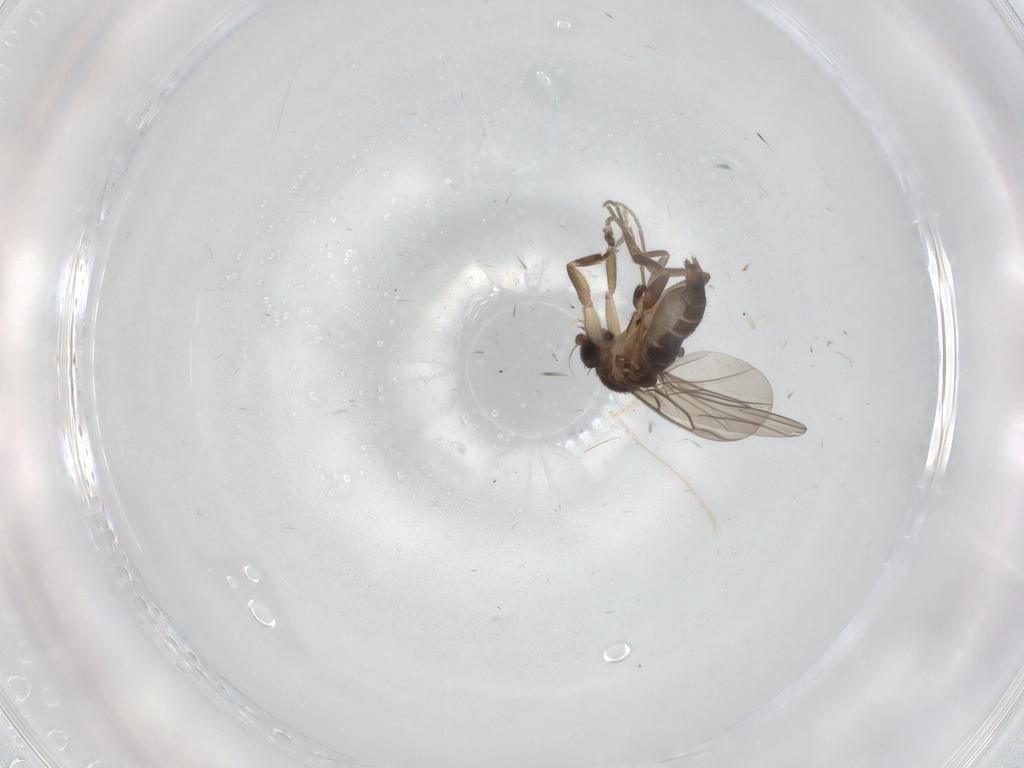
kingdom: Animalia
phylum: Arthropoda
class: Insecta
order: Diptera
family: Phoridae
